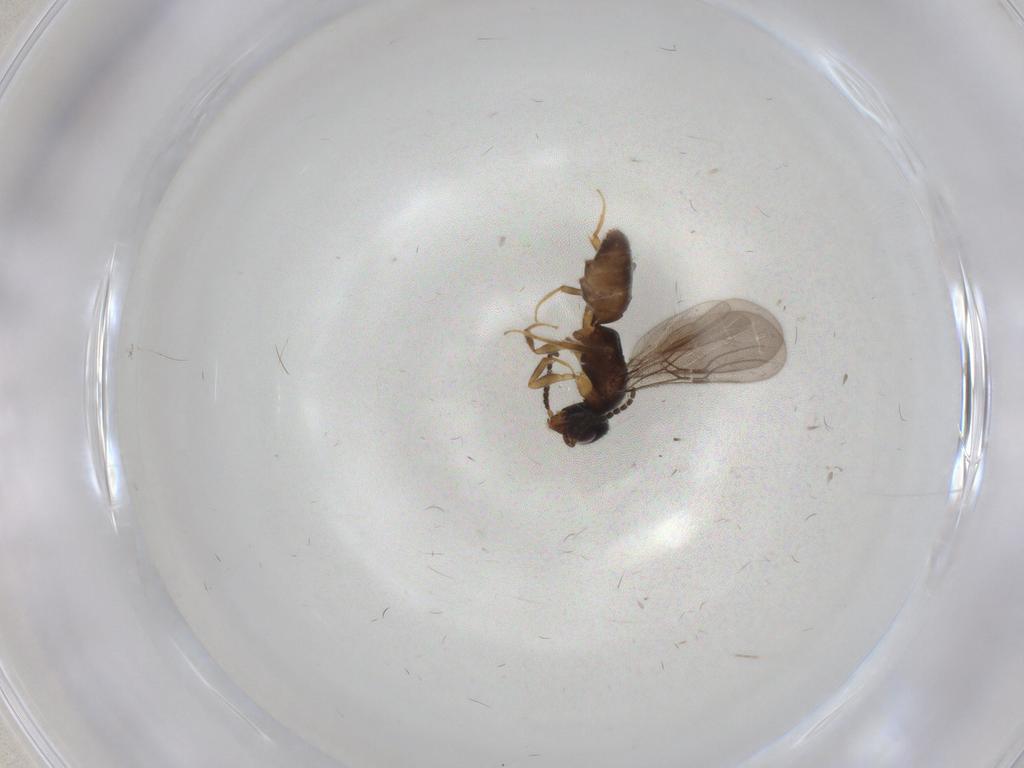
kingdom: Animalia
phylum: Arthropoda
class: Insecta
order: Hymenoptera
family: Bethylidae
